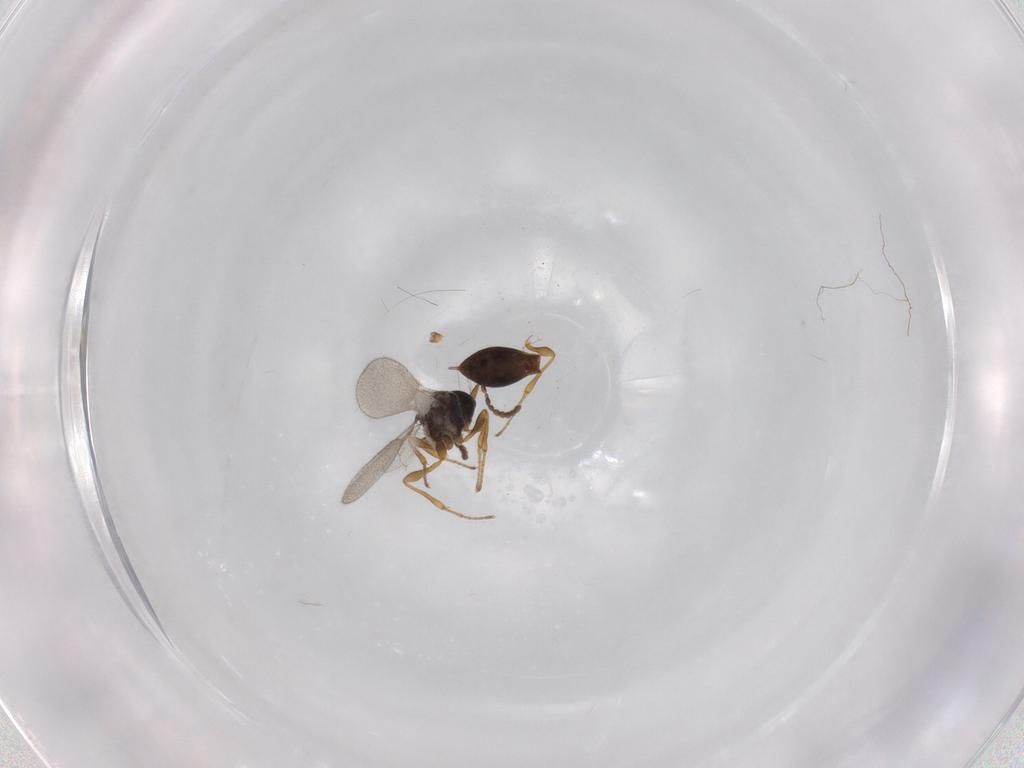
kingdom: Animalia
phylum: Arthropoda
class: Insecta
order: Diptera
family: Mythicomyiidae
